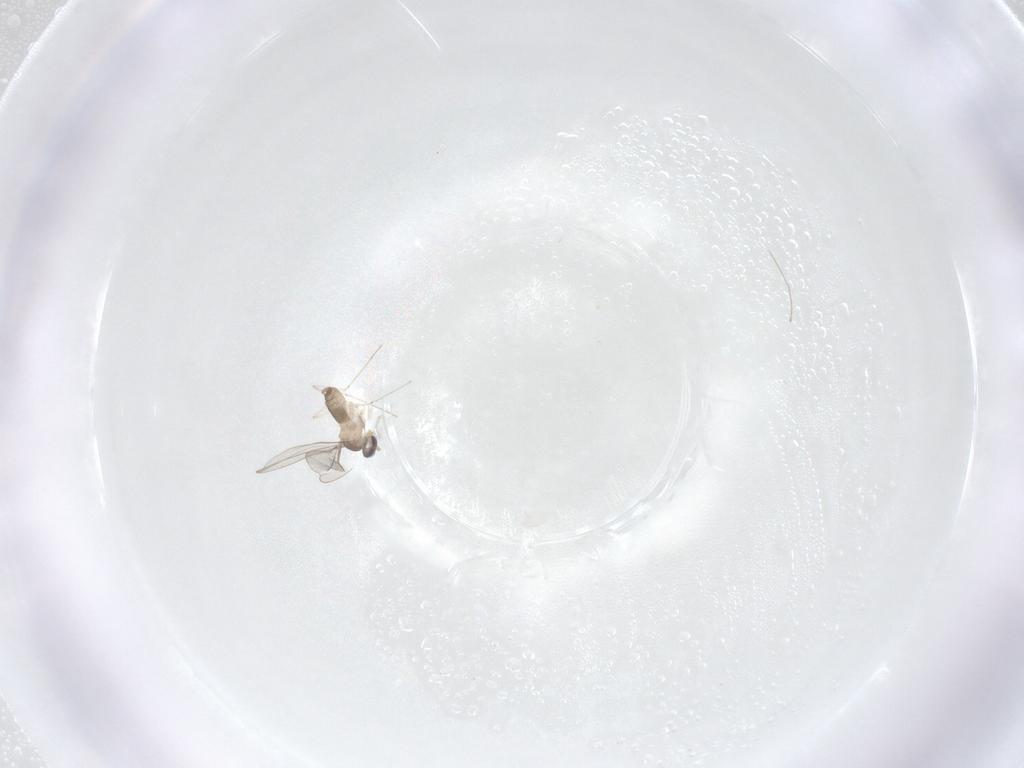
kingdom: Animalia
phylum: Arthropoda
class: Insecta
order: Diptera
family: Cecidomyiidae
